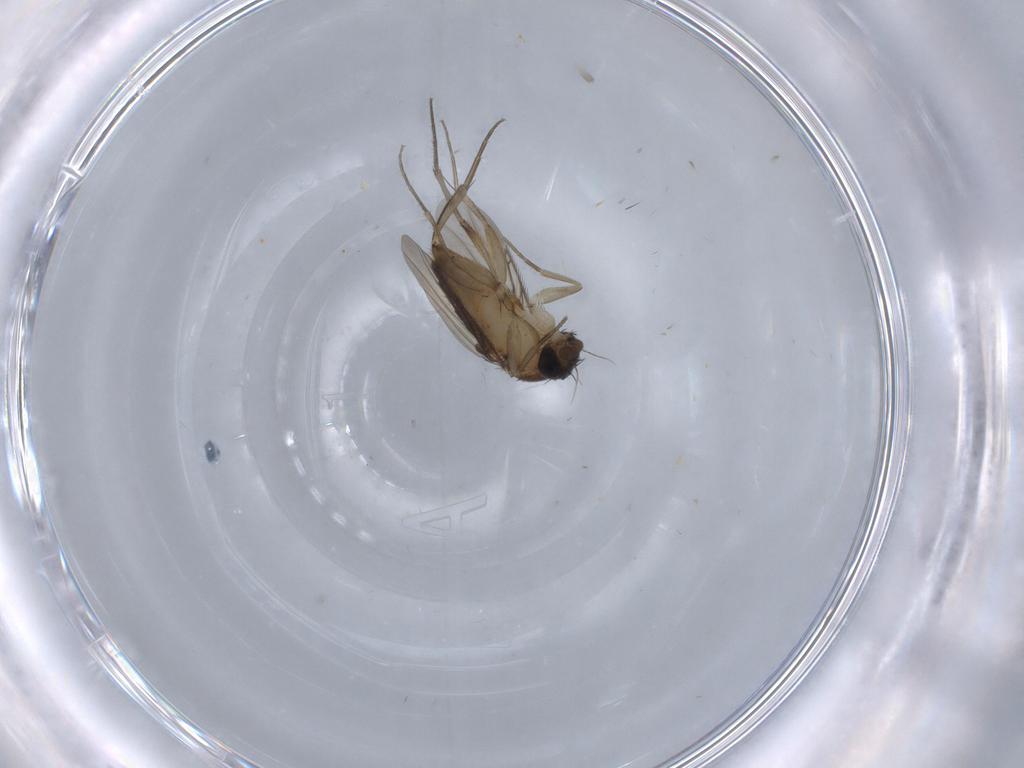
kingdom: Animalia
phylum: Arthropoda
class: Insecta
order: Diptera
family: Phoridae
